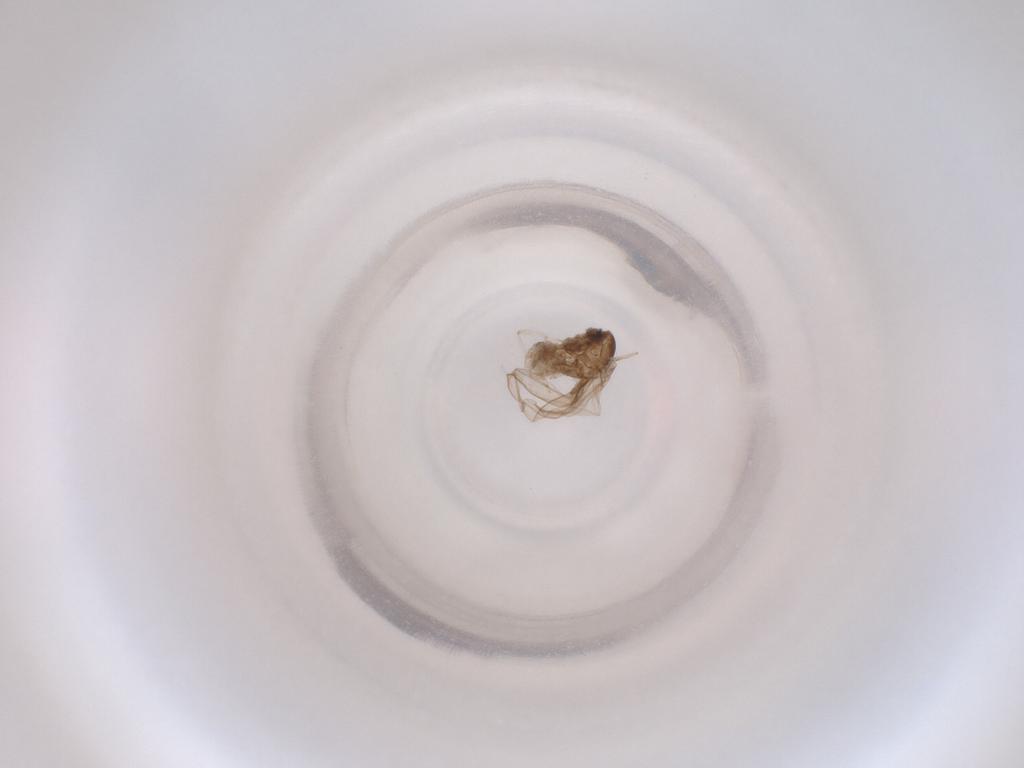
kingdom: Animalia
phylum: Arthropoda
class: Insecta
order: Diptera
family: Cecidomyiidae
